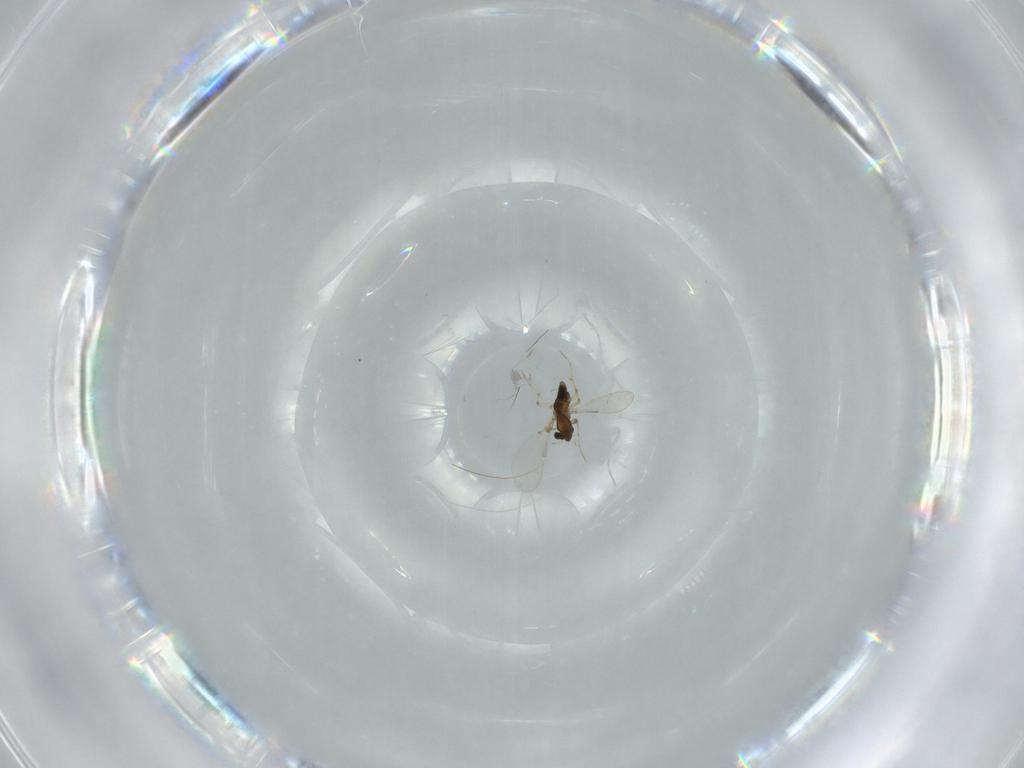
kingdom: Animalia
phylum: Arthropoda
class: Insecta
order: Diptera
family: Chironomidae
